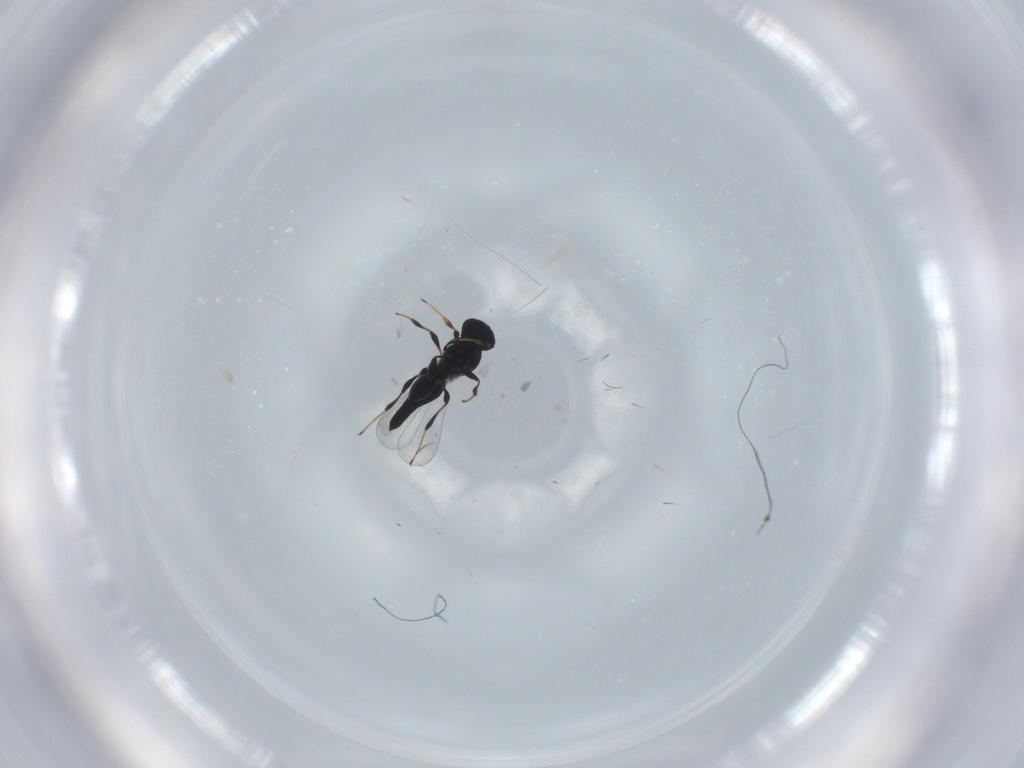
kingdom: Animalia
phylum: Arthropoda
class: Insecta
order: Hymenoptera
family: Platygastridae
